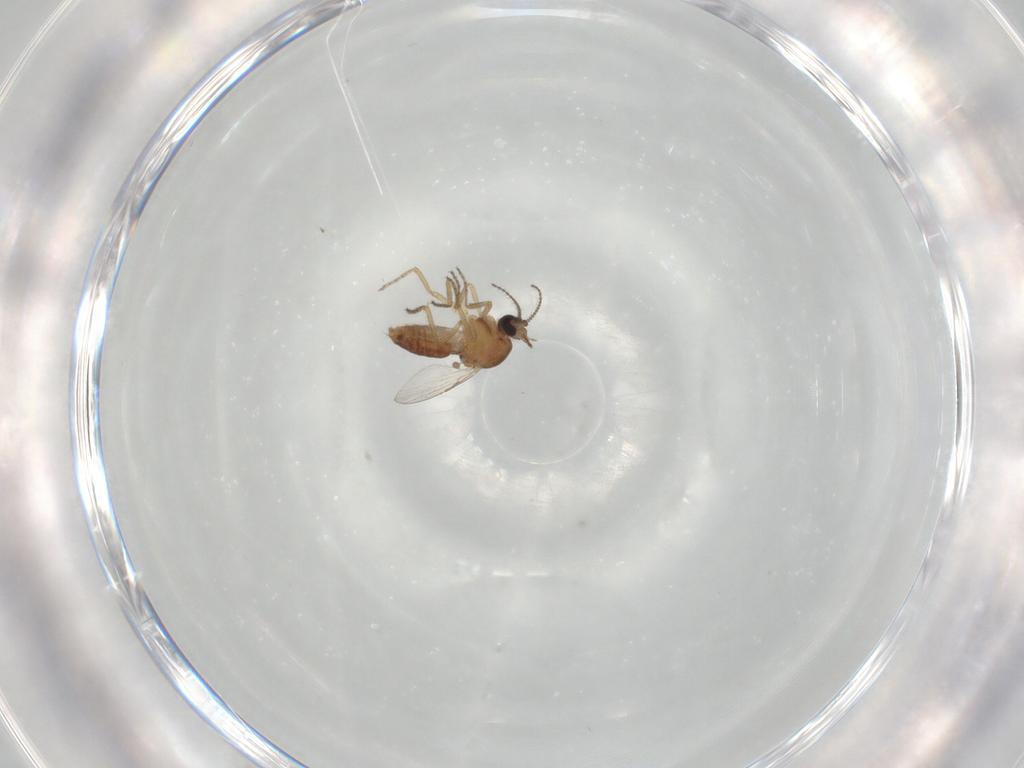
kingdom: Animalia
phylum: Arthropoda
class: Insecta
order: Diptera
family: Ceratopogonidae
